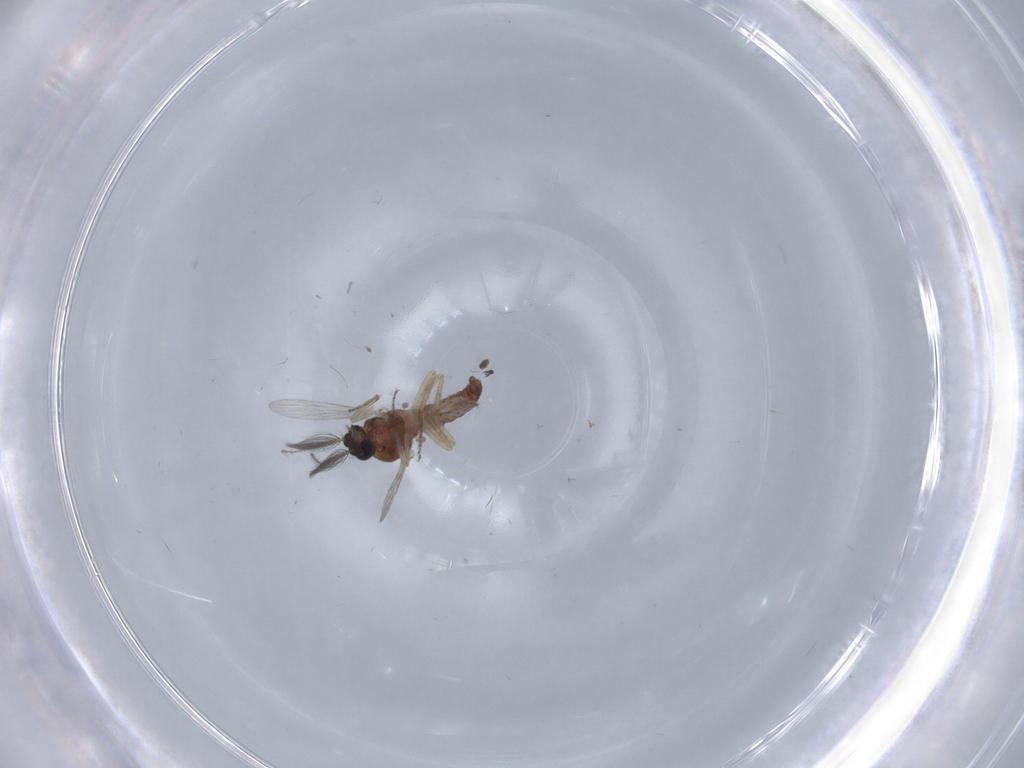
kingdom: Animalia
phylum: Arthropoda
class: Insecta
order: Diptera
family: Ceratopogonidae
